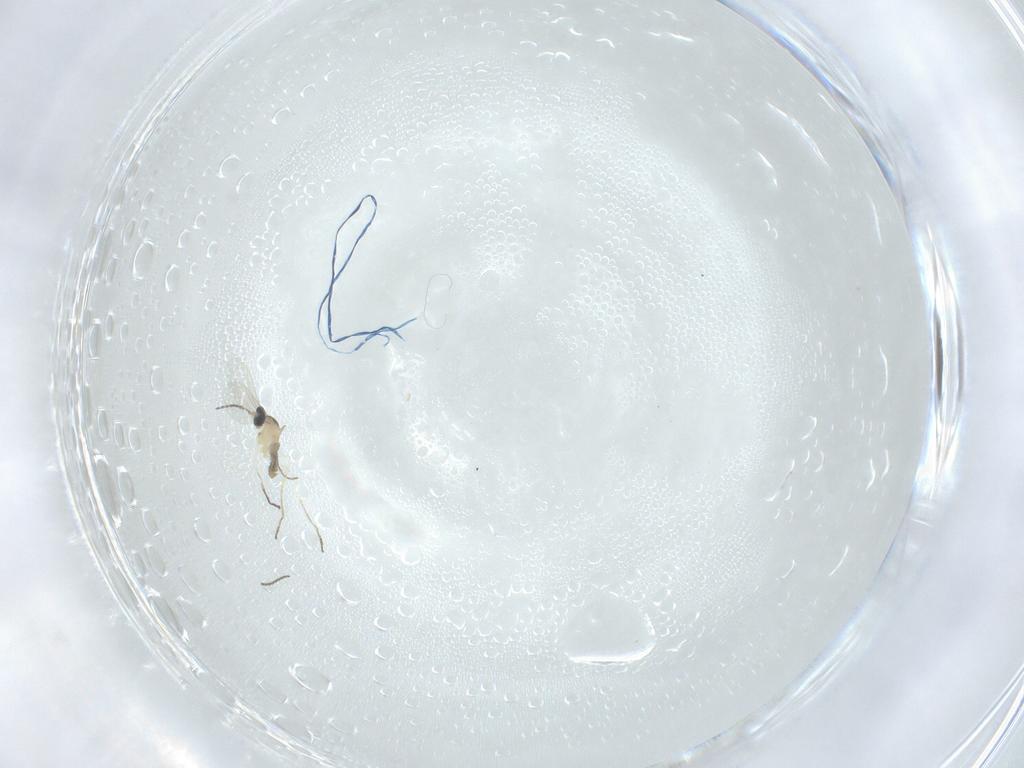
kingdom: Animalia
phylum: Arthropoda
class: Insecta
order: Diptera
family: Cecidomyiidae
